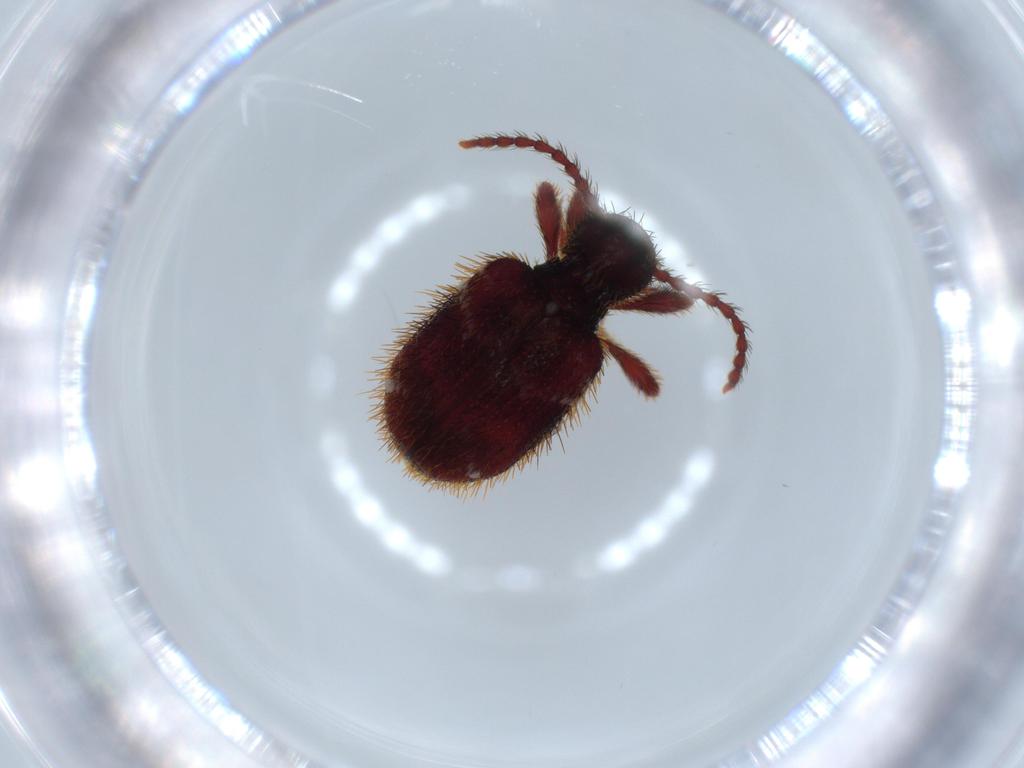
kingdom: Animalia
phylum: Arthropoda
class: Insecta
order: Coleoptera
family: Ptinidae
